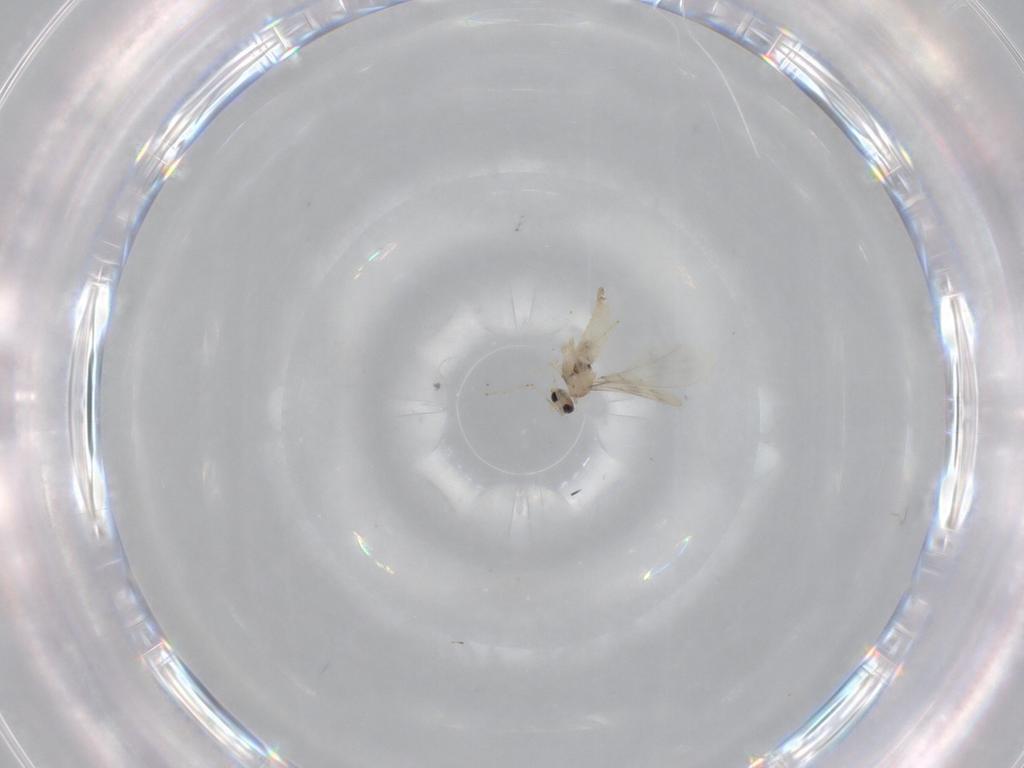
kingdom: Animalia
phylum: Arthropoda
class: Insecta
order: Diptera
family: Cecidomyiidae
